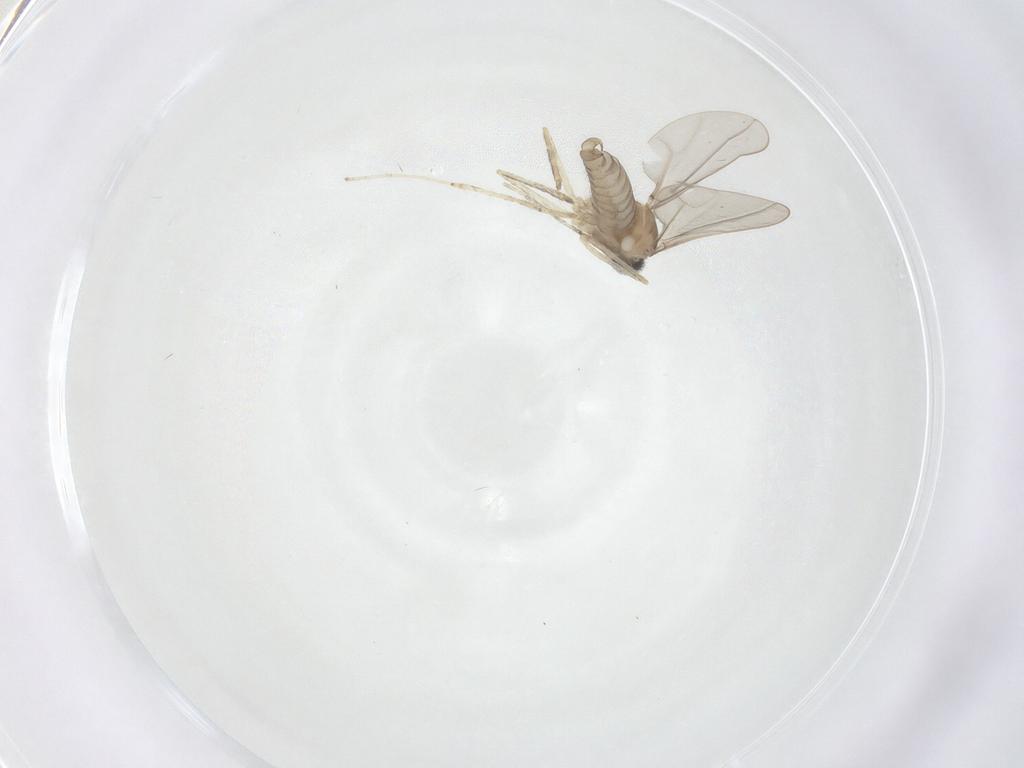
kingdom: Animalia
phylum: Arthropoda
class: Insecta
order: Diptera
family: Cecidomyiidae
